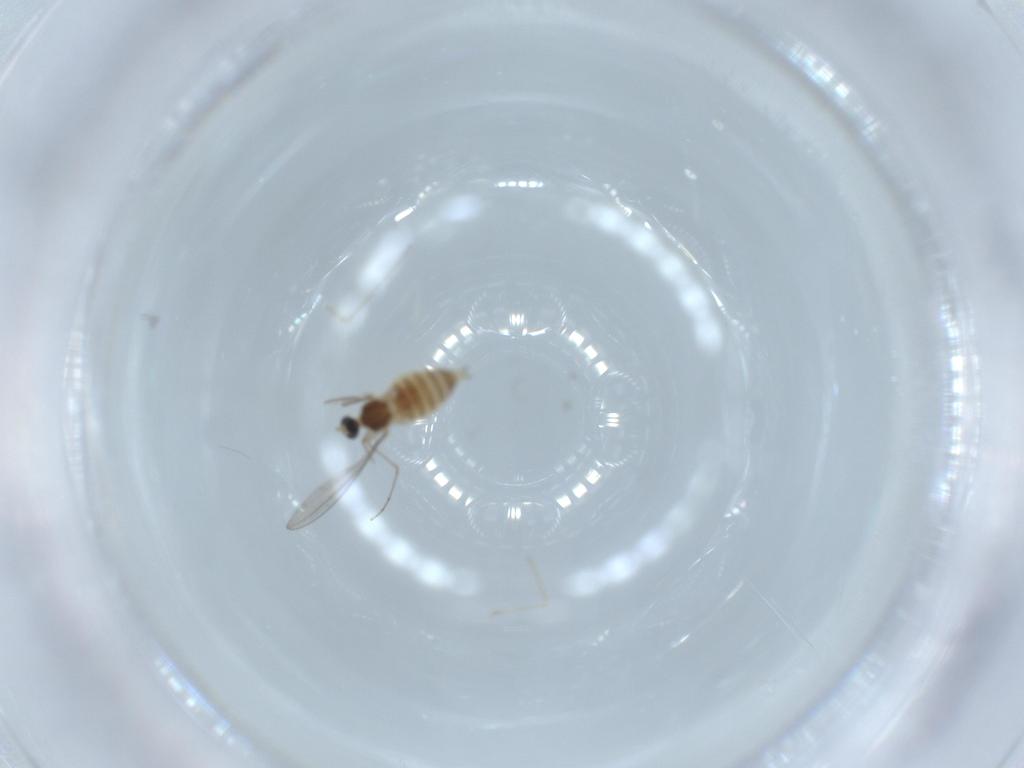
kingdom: Animalia
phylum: Arthropoda
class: Insecta
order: Diptera
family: Cecidomyiidae
